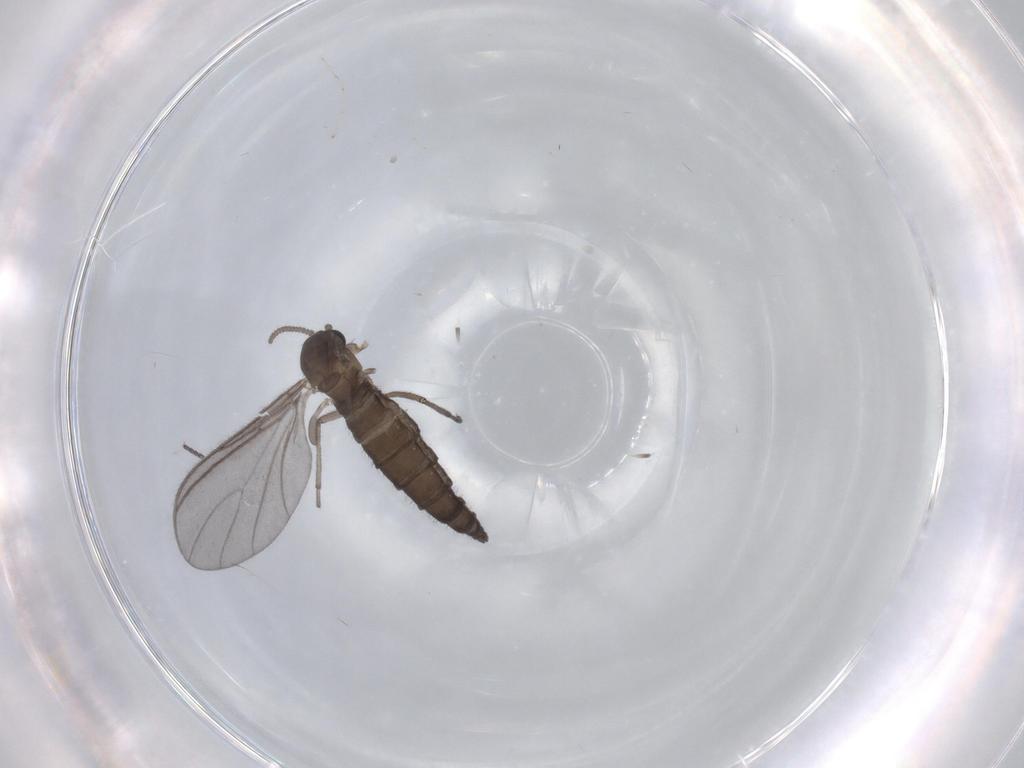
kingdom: Animalia
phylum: Arthropoda
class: Insecta
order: Diptera
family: Sciaridae
